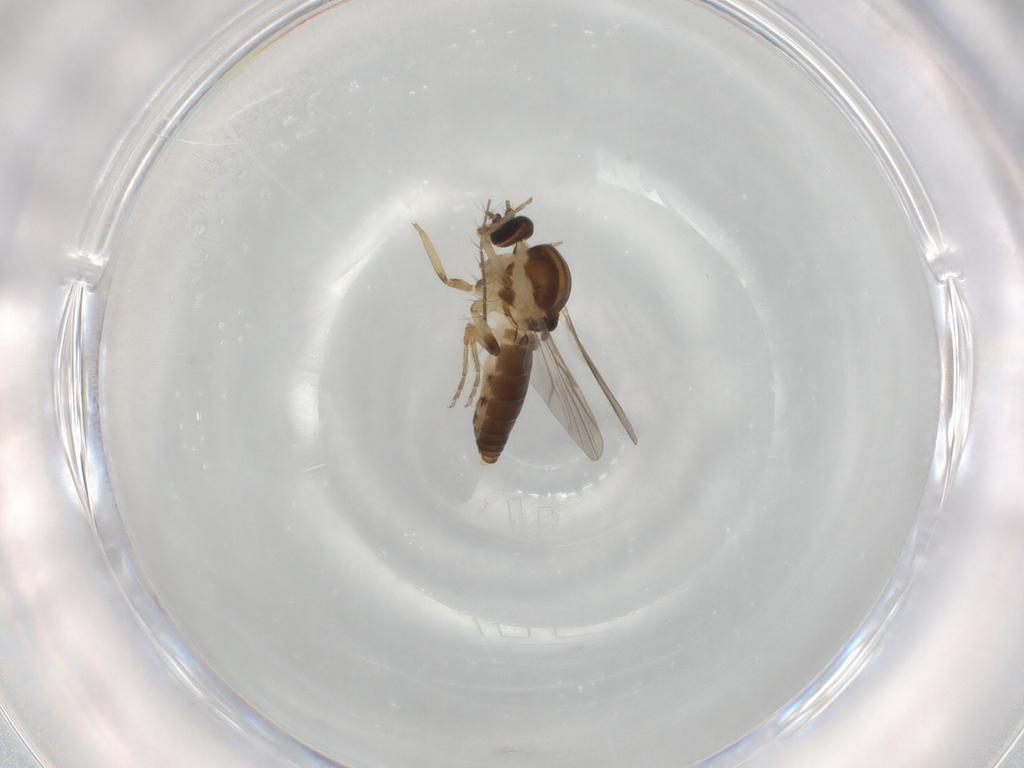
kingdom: Animalia
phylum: Arthropoda
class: Insecta
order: Diptera
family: Ceratopogonidae
